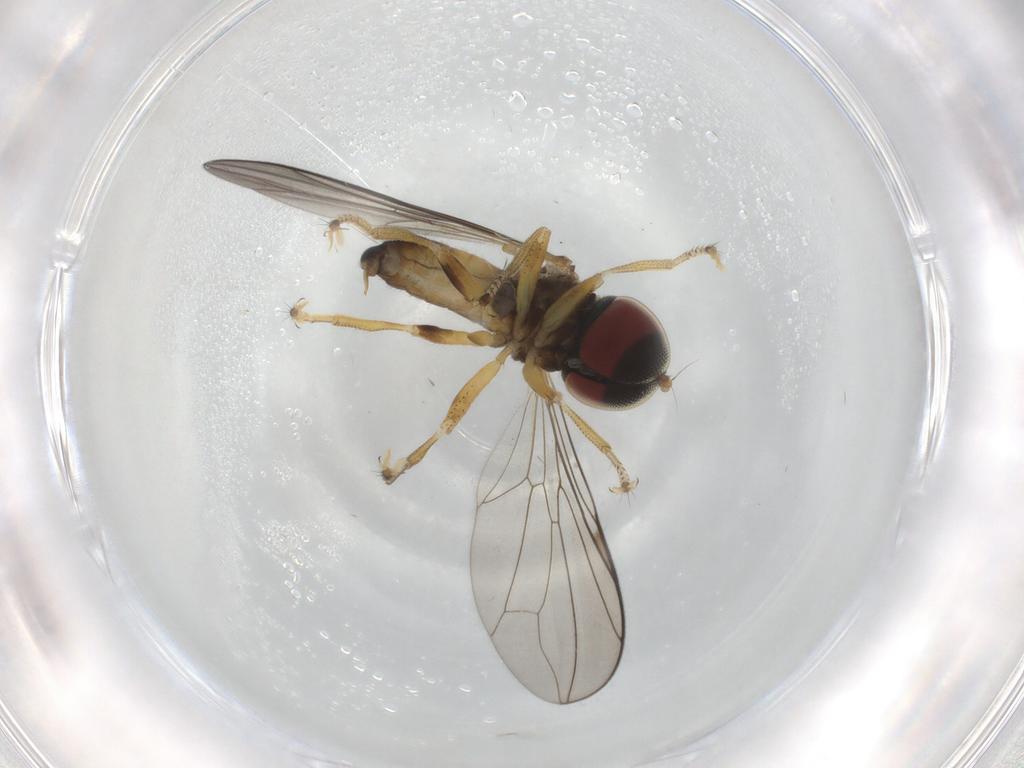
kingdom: Animalia
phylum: Arthropoda
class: Insecta
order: Diptera
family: Pipunculidae
